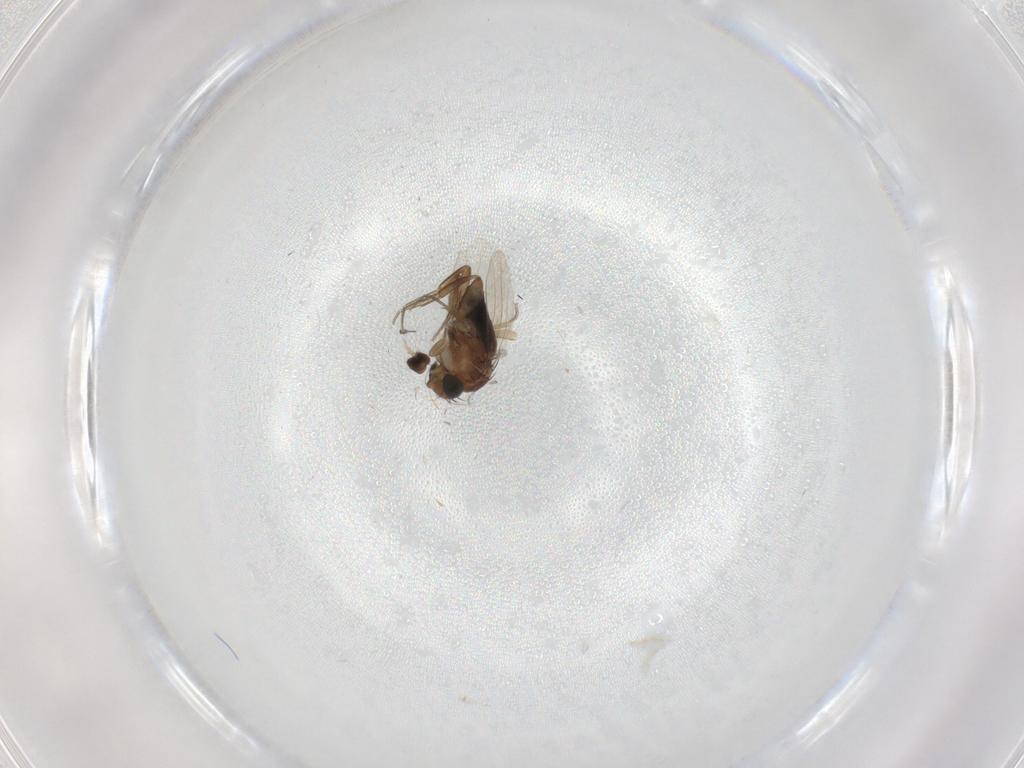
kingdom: Animalia
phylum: Arthropoda
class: Insecta
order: Diptera
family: Phoridae
